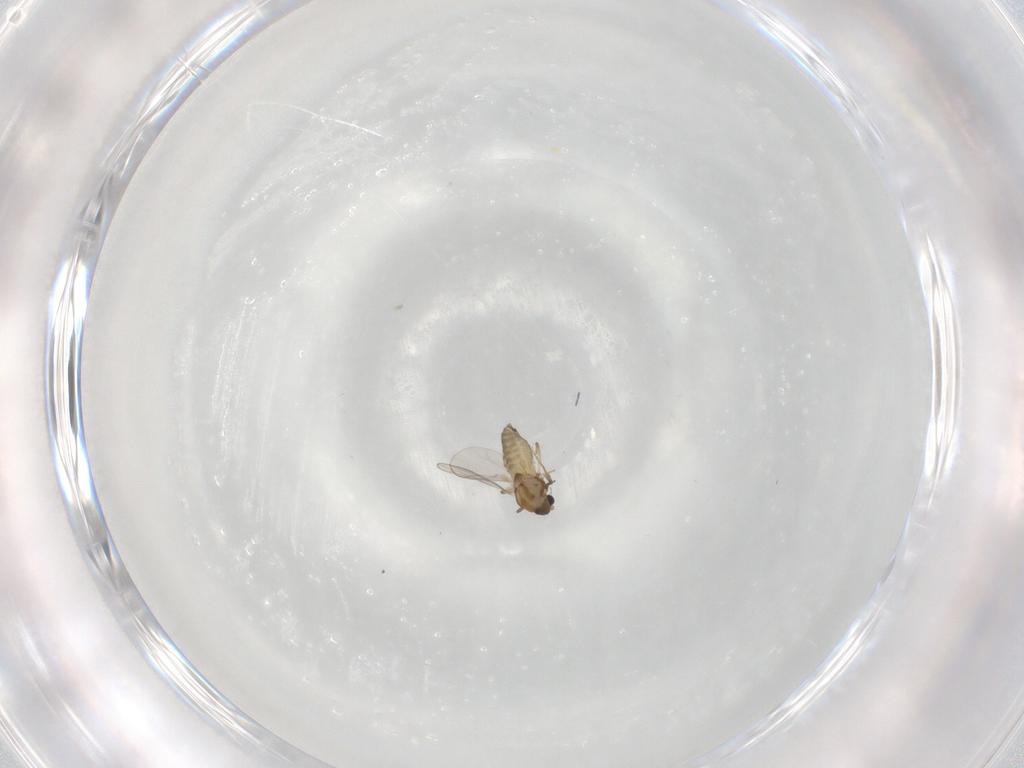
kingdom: Animalia
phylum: Arthropoda
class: Insecta
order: Diptera
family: Chironomidae
